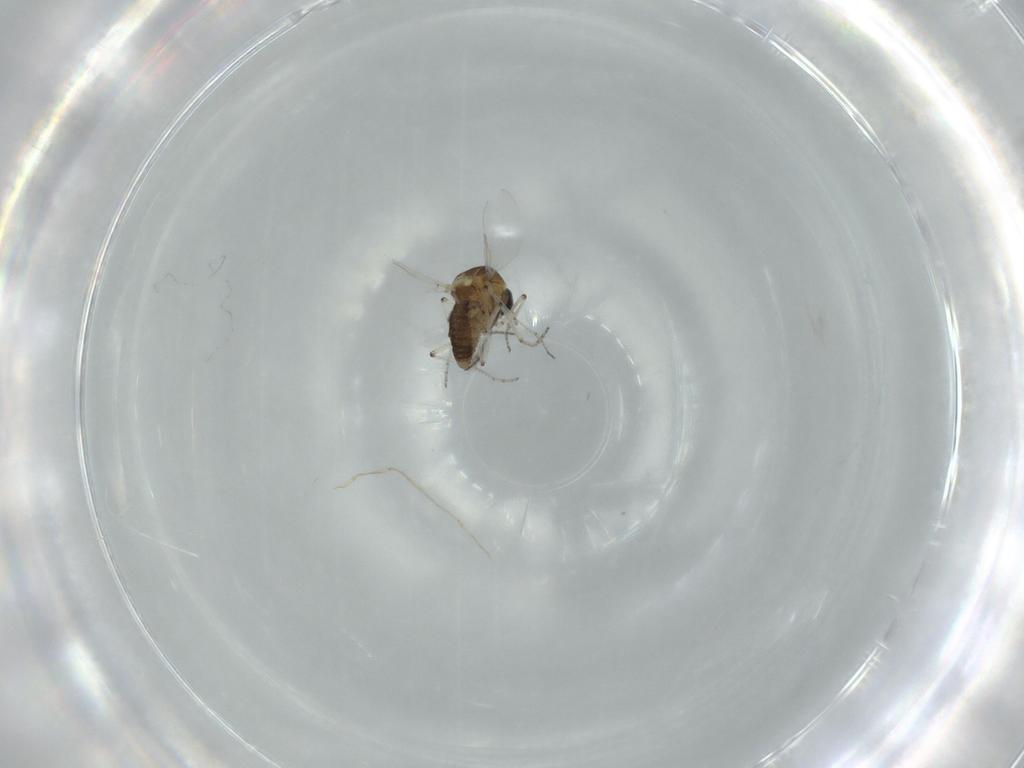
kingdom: Animalia
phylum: Arthropoda
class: Insecta
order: Diptera
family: Ceratopogonidae
